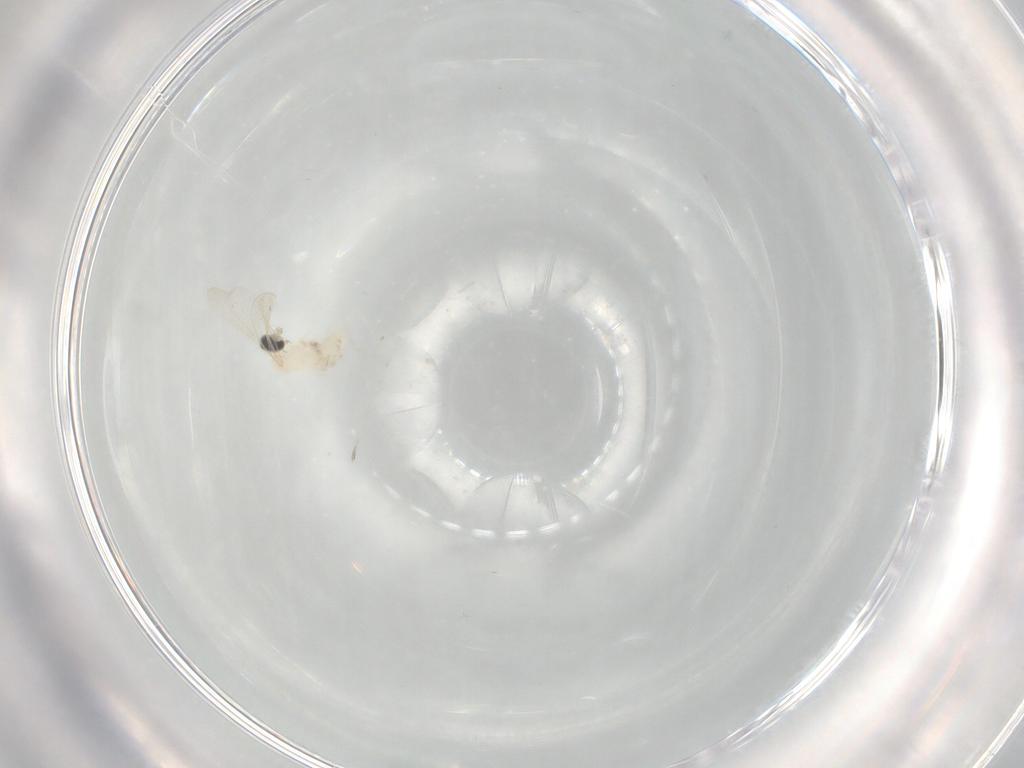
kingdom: Animalia
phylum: Arthropoda
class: Insecta
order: Diptera
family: Cecidomyiidae
